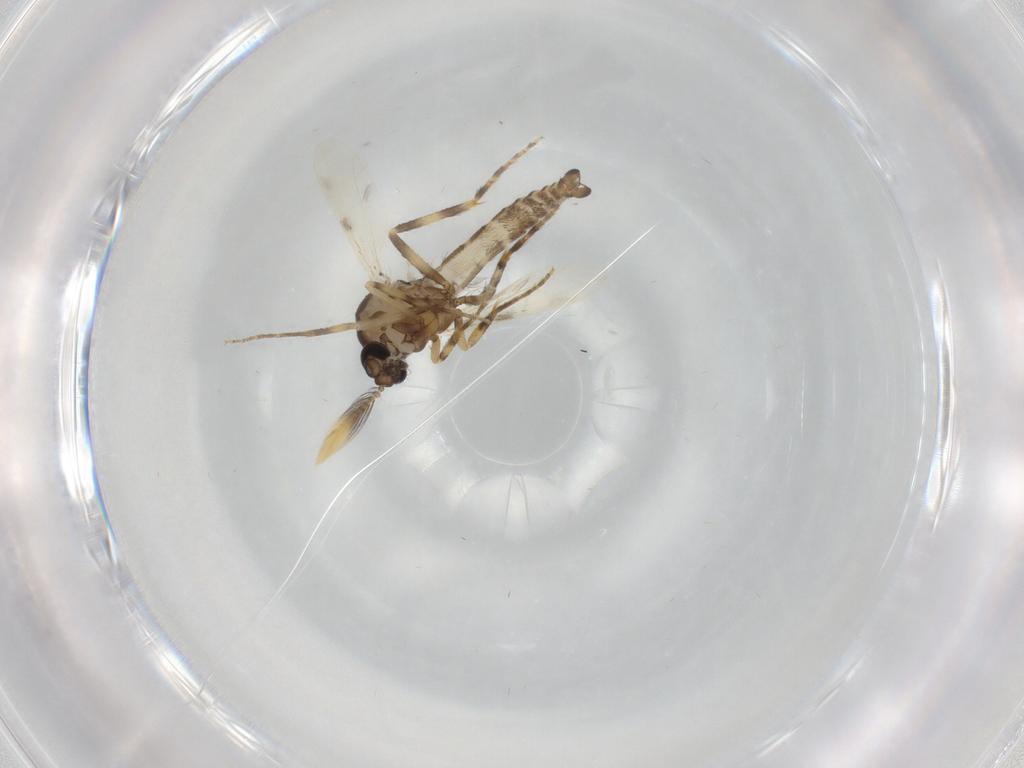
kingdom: Animalia
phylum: Arthropoda
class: Insecta
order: Diptera
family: Ceratopogonidae
